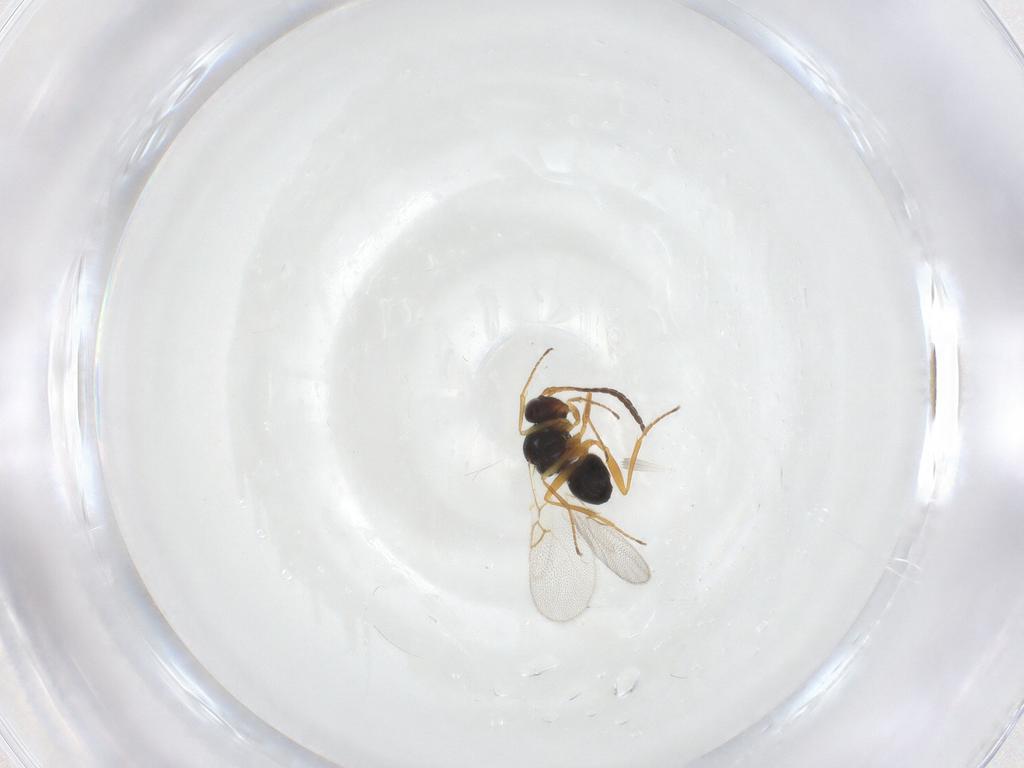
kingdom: Animalia
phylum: Arthropoda
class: Insecta
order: Hymenoptera
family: Figitidae
